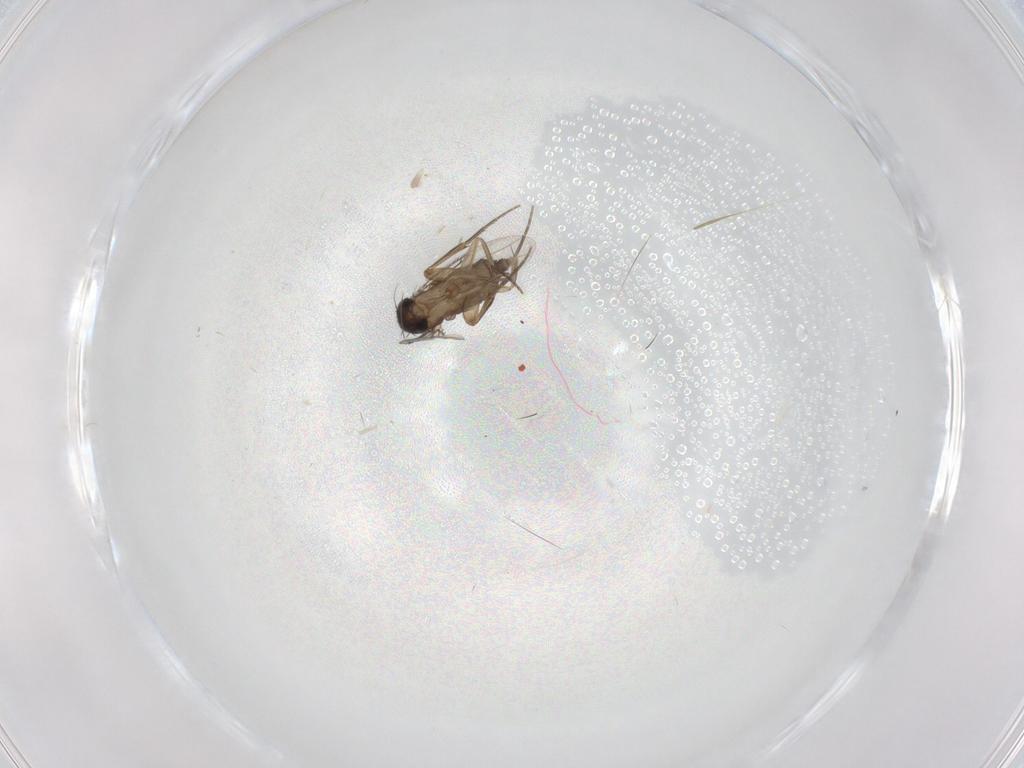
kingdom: Animalia
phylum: Arthropoda
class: Insecta
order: Diptera
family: Phoridae
